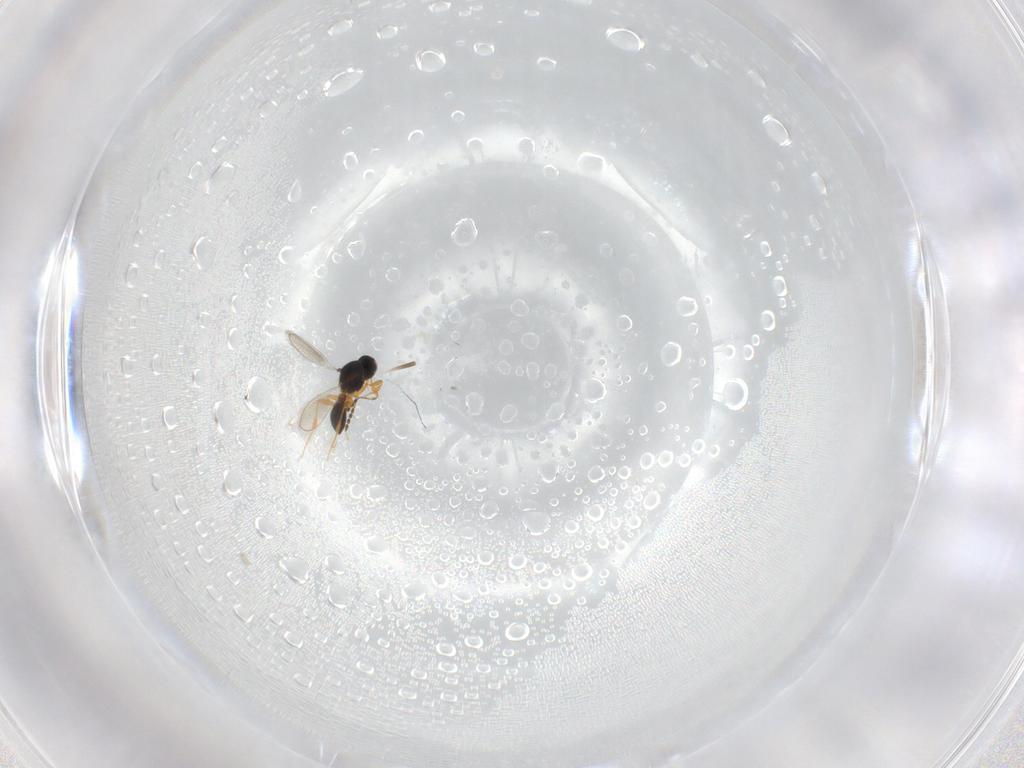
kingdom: Animalia
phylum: Arthropoda
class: Insecta
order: Hymenoptera
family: Platygastridae
